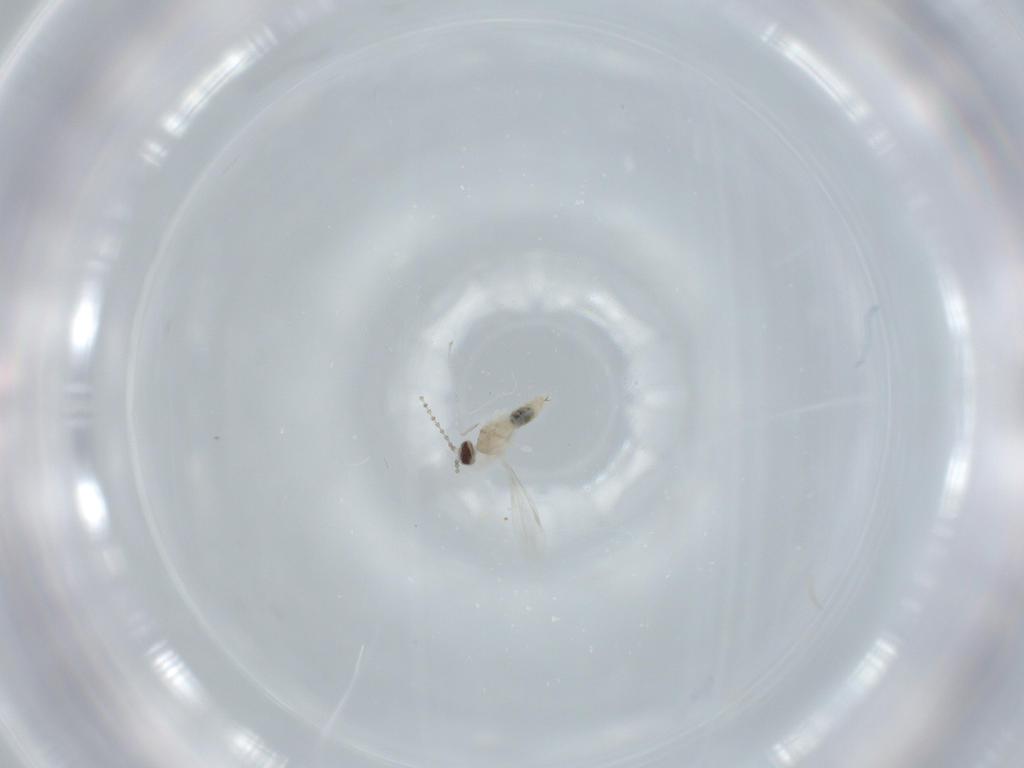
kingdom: Animalia
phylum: Arthropoda
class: Insecta
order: Diptera
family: Cecidomyiidae
